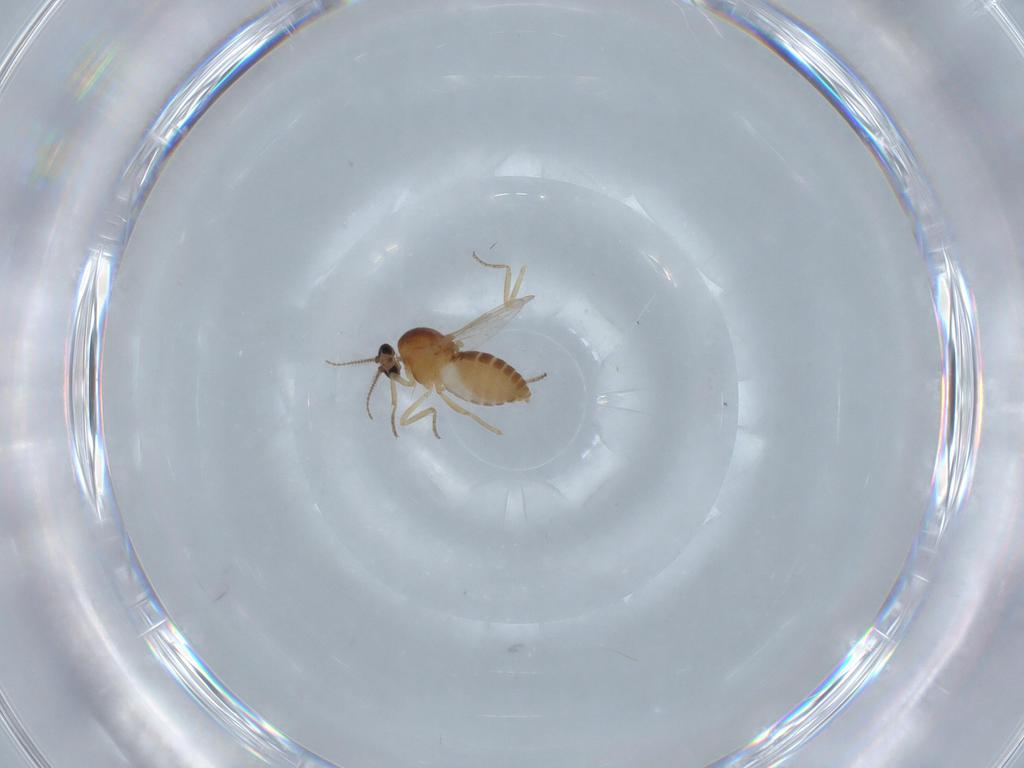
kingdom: Animalia
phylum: Arthropoda
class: Insecta
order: Diptera
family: Ceratopogonidae
